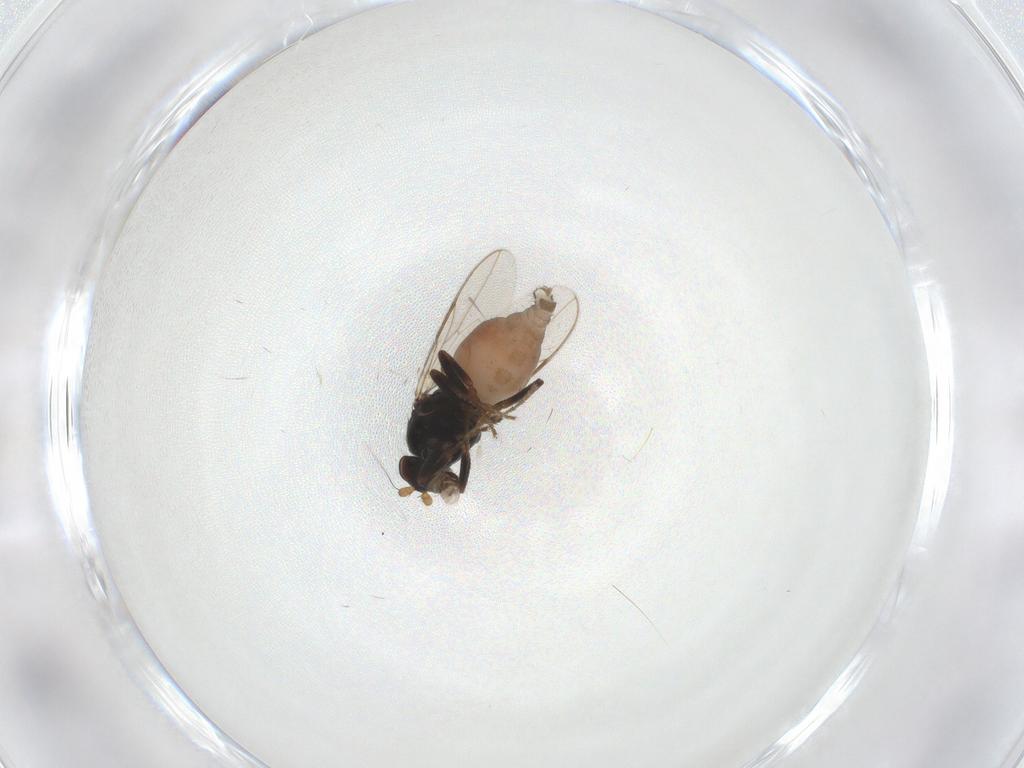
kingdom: Animalia
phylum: Arthropoda
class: Insecta
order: Diptera
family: Sphaeroceridae
